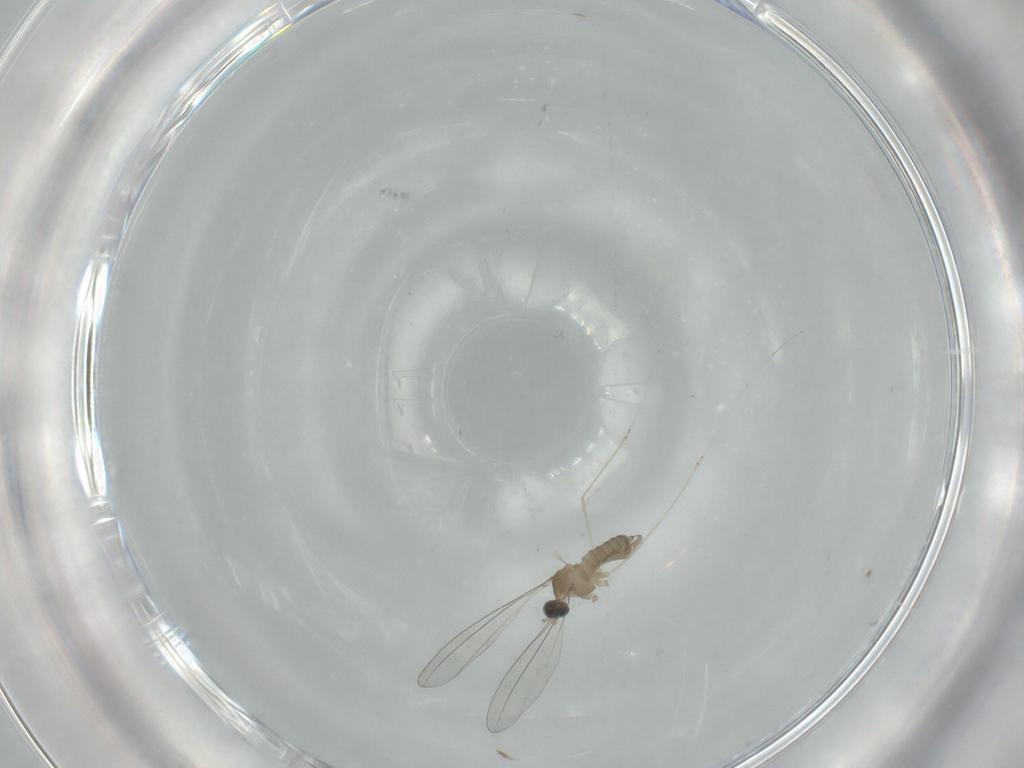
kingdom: Animalia
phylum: Arthropoda
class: Insecta
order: Diptera
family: Cecidomyiidae
